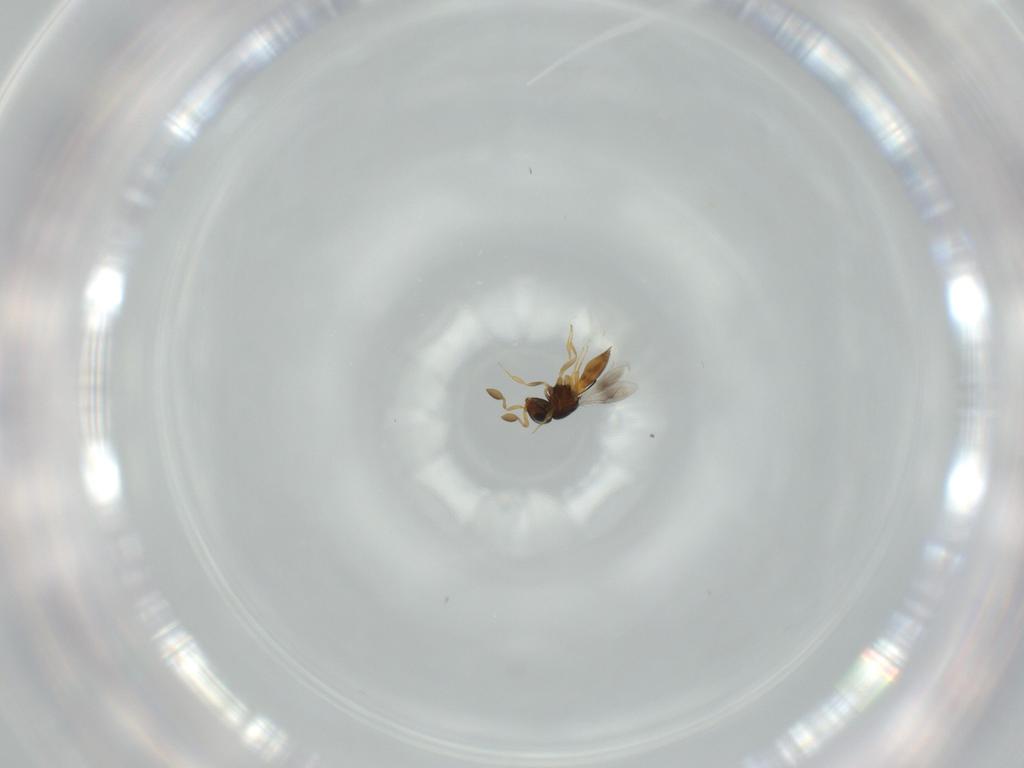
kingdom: Animalia
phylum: Arthropoda
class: Insecta
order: Hymenoptera
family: Scelionidae
